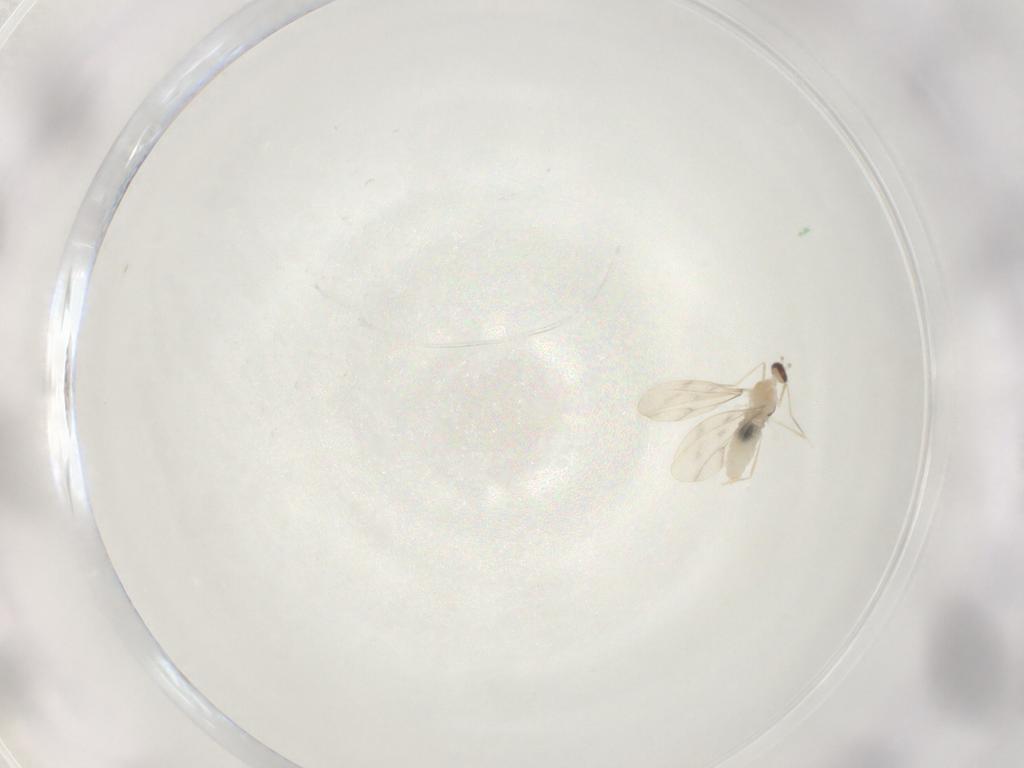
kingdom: Animalia
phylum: Arthropoda
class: Insecta
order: Diptera
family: Cecidomyiidae
